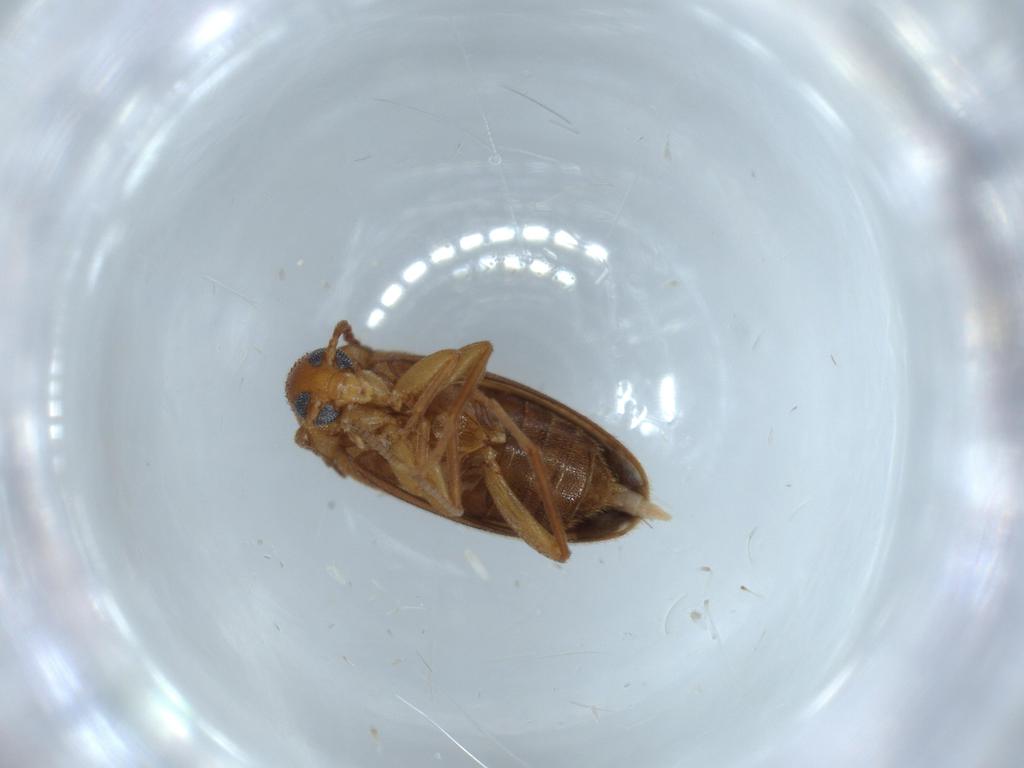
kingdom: Animalia
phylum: Arthropoda
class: Insecta
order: Coleoptera
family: Scraptiidae
